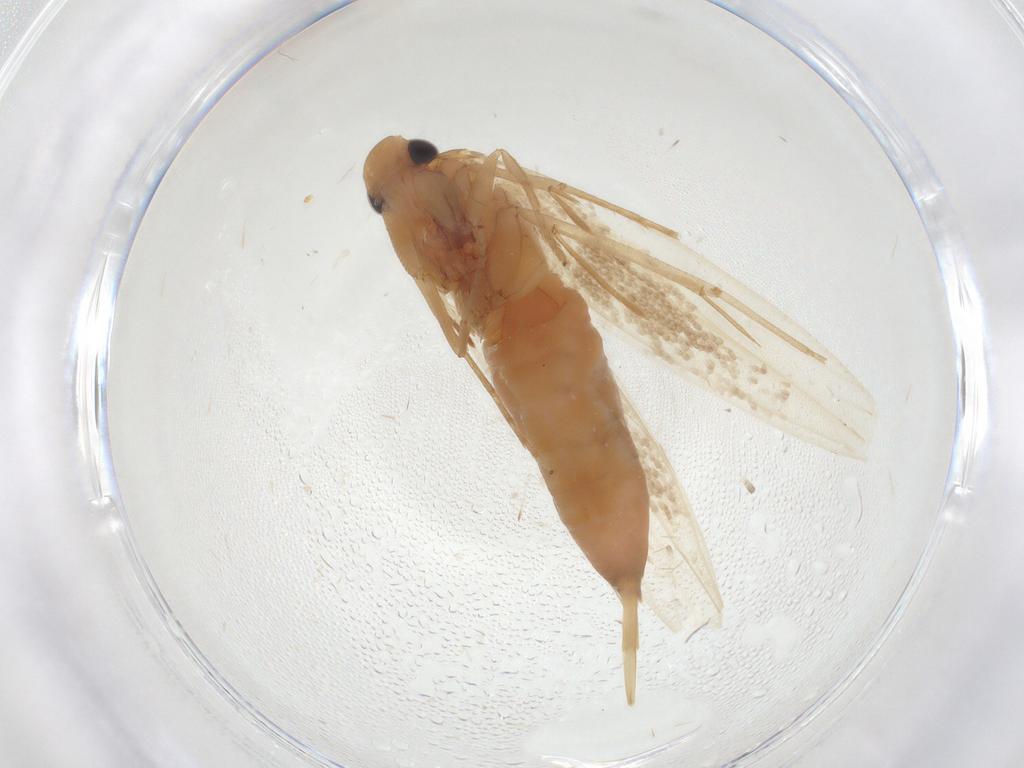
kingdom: Animalia
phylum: Arthropoda
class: Insecta
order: Lepidoptera
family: Tineidae
